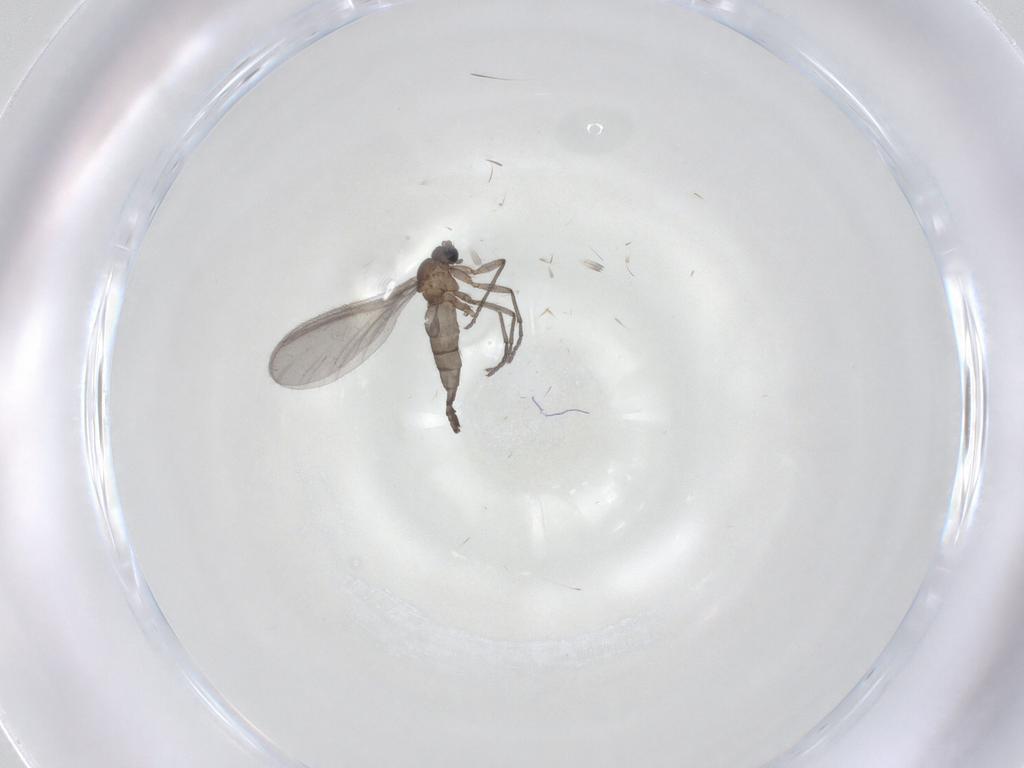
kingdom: Animalia
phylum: Arthropoda
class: Insecta
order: Diptera
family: Sciaridae
